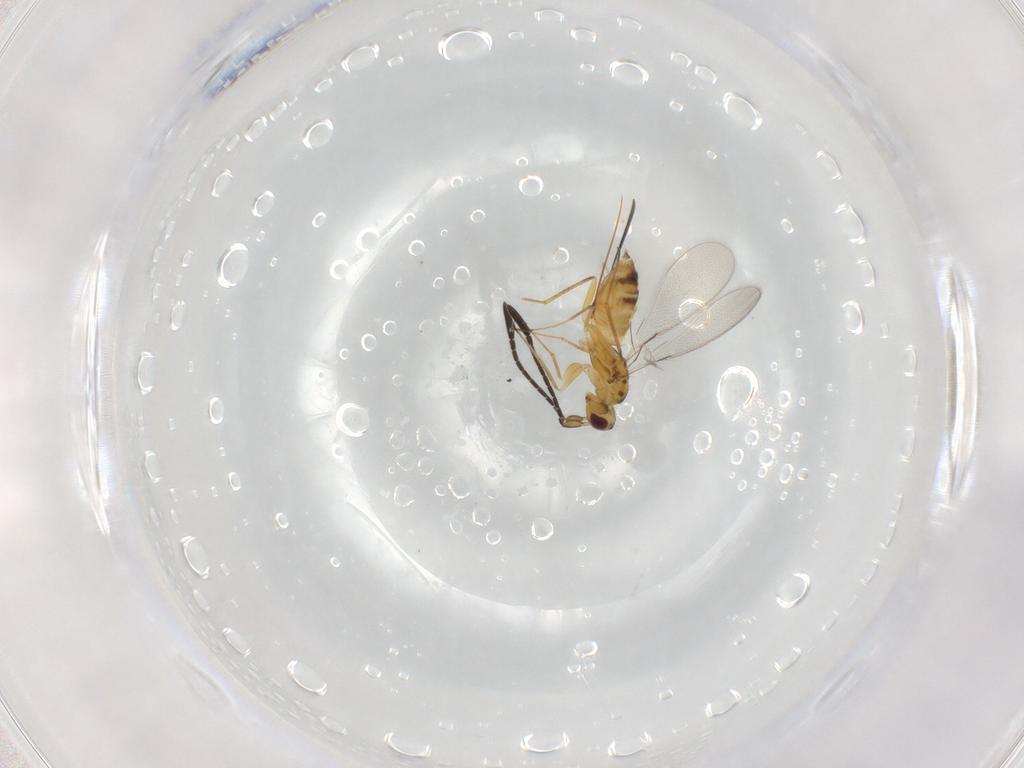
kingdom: Animalia
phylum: Arthropoda
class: Insecta
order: Hymenoptera
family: Mymaridae
